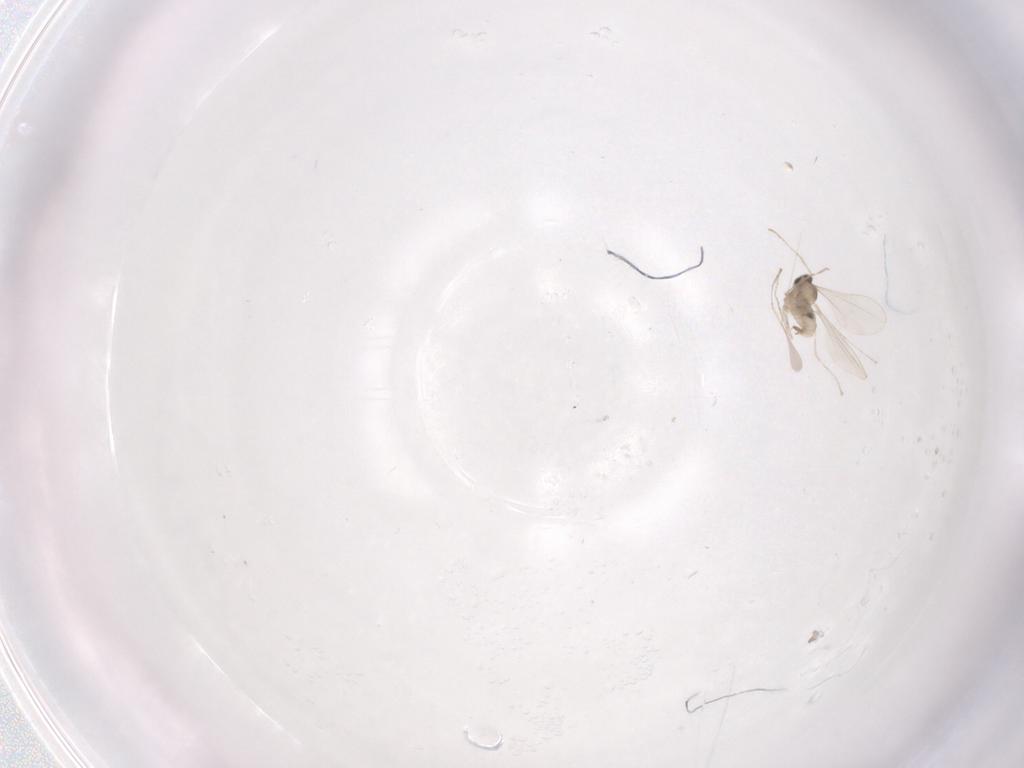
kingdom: Animalia
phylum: Arthropoda
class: Insecta
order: Diptera
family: Cecidomyiidae
